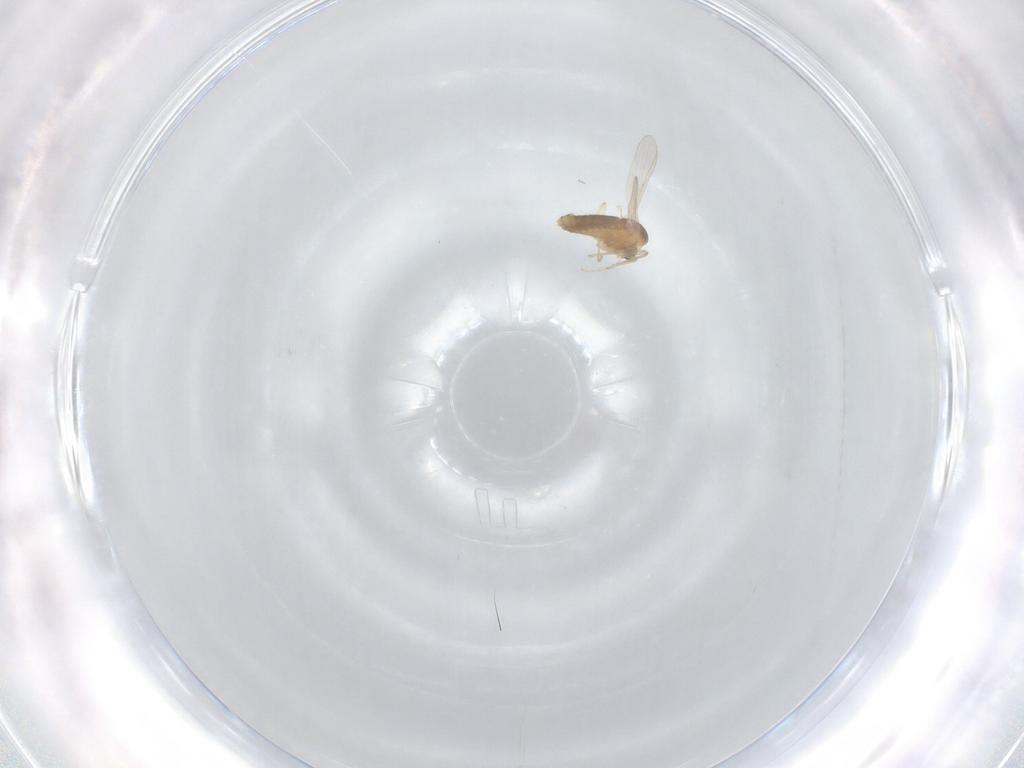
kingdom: Animalia
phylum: Arthropoda
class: Insecta
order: Diptera
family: Chironomidae
